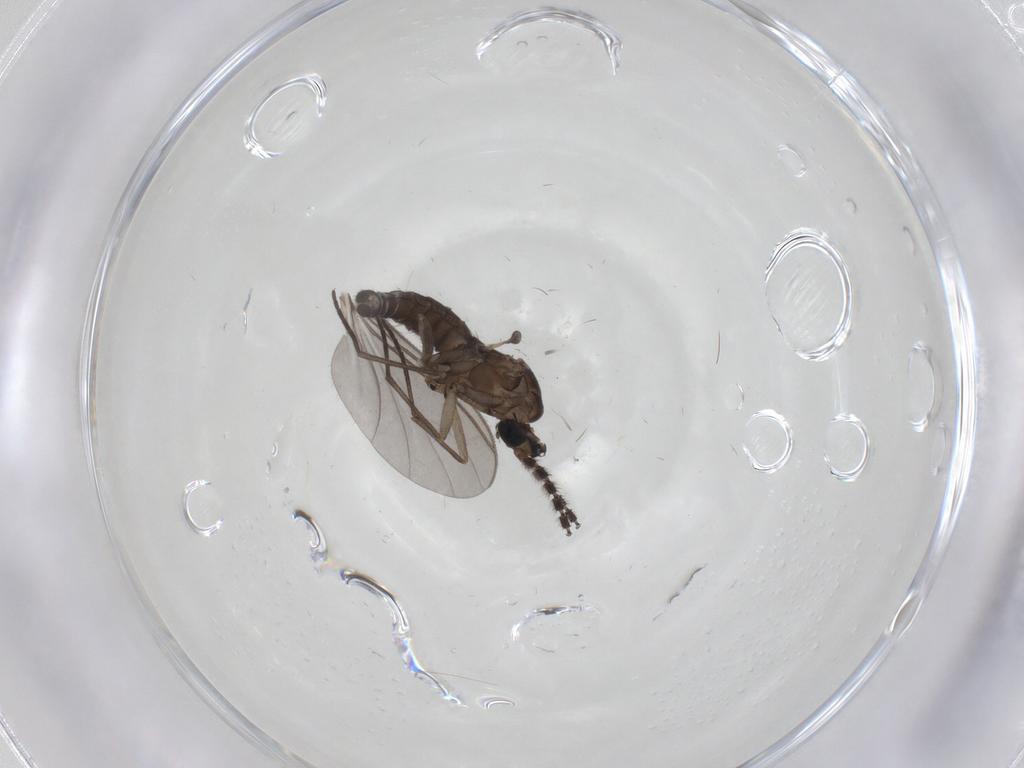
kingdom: Animalia
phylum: Arthropoda
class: Insecta
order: Diptera
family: Sciaridae
